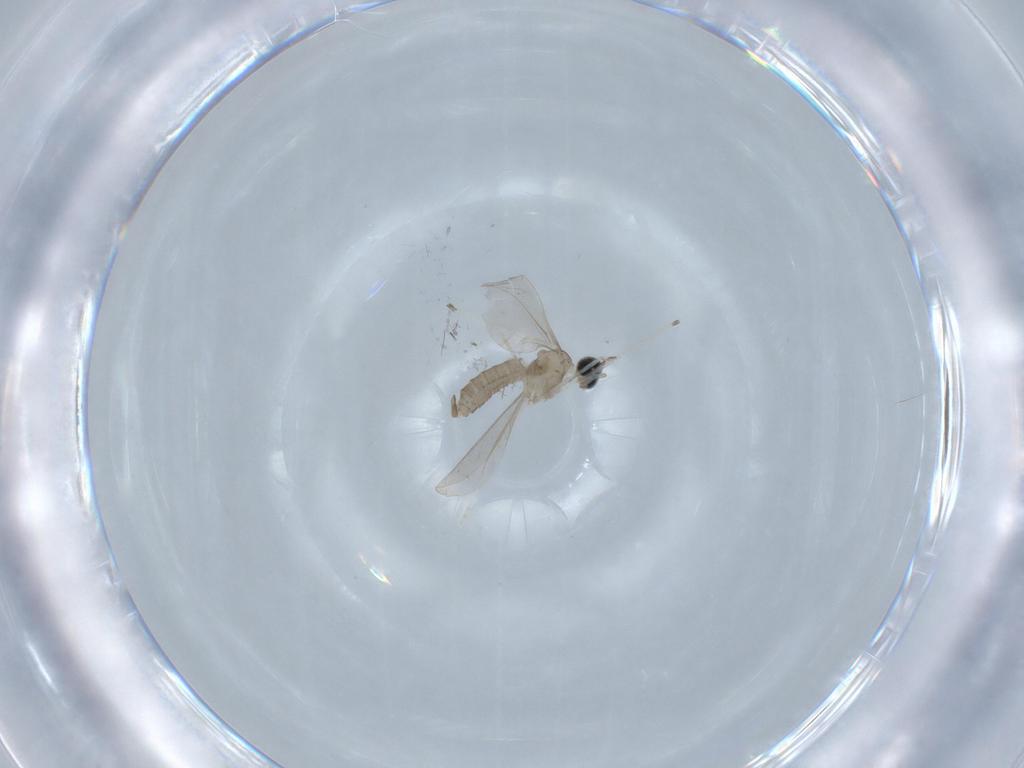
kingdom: Animalia
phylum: Arthropoda
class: Insecta
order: Diptera
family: Cecidomyiidae
